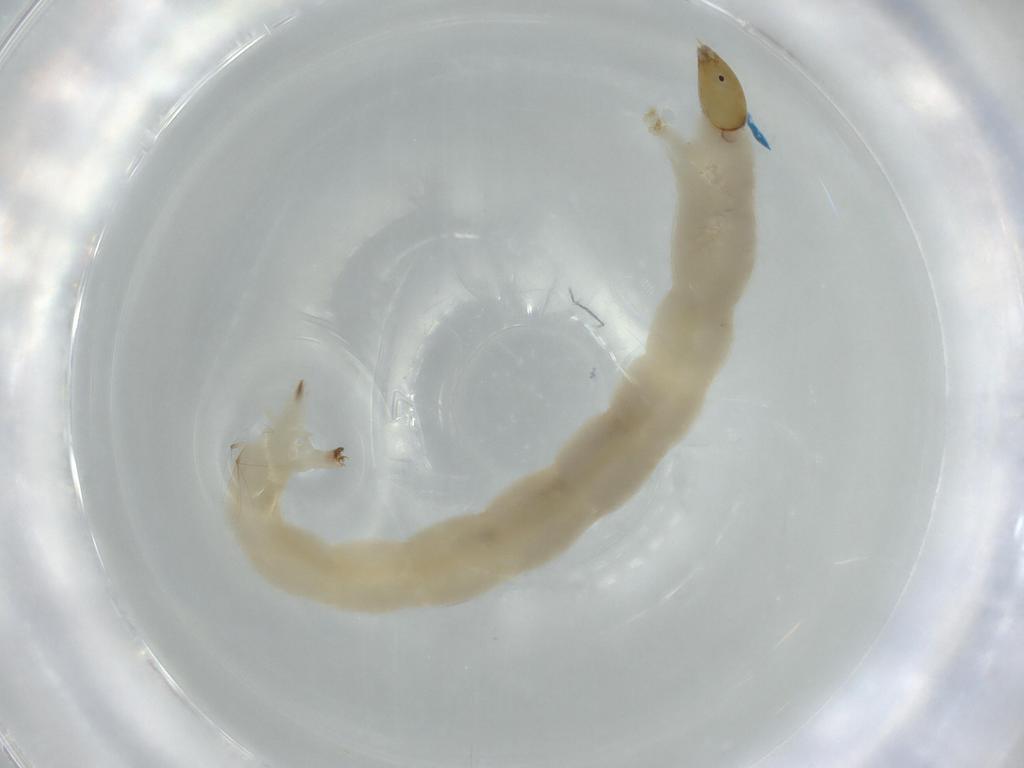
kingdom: Animalia
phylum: Arthropoda
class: Insecta
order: Diptera
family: Chironomidae
